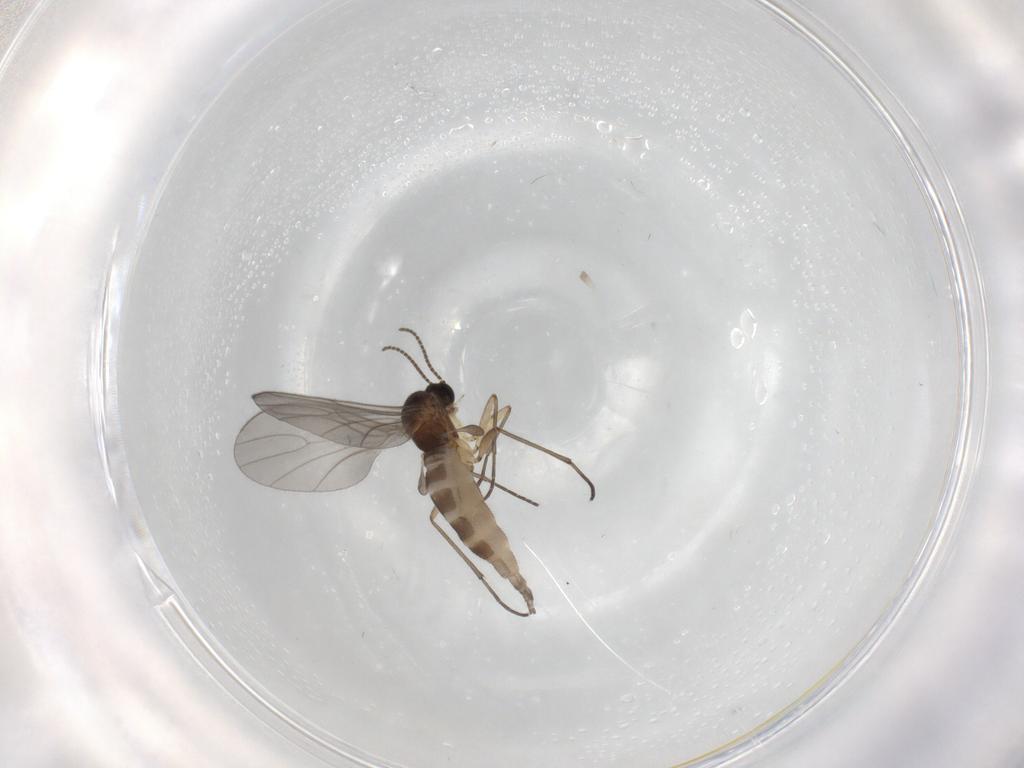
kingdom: Animalia
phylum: Arthropoda
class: Insecta
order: Diptera
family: Sciaridae
